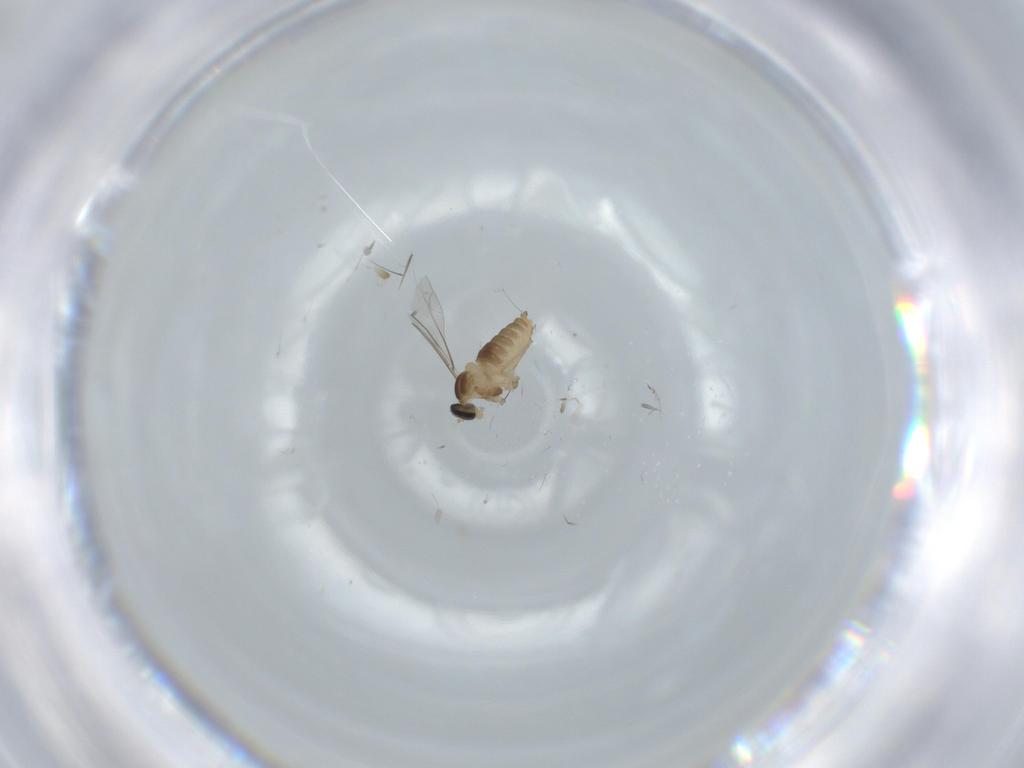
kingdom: Animalia
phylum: Arthropoda
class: Insecta
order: Diptera
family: Cecidomyiidae
